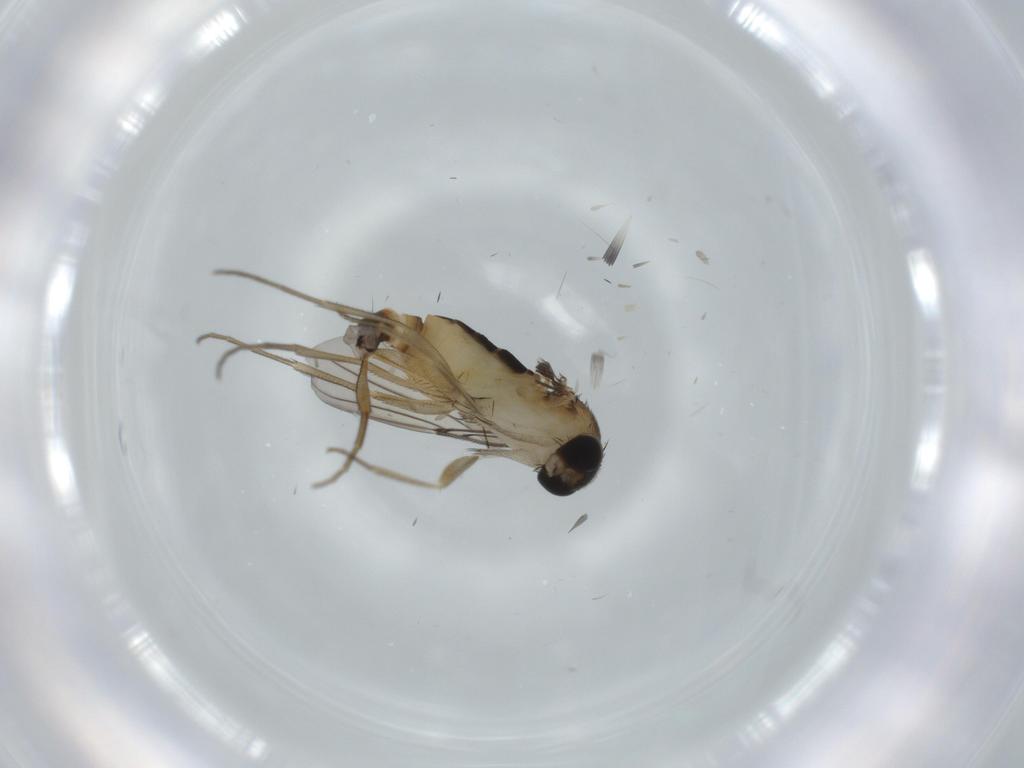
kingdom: Animalia
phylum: Arthropoda
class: Insecta
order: Diptera
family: Phoridae
